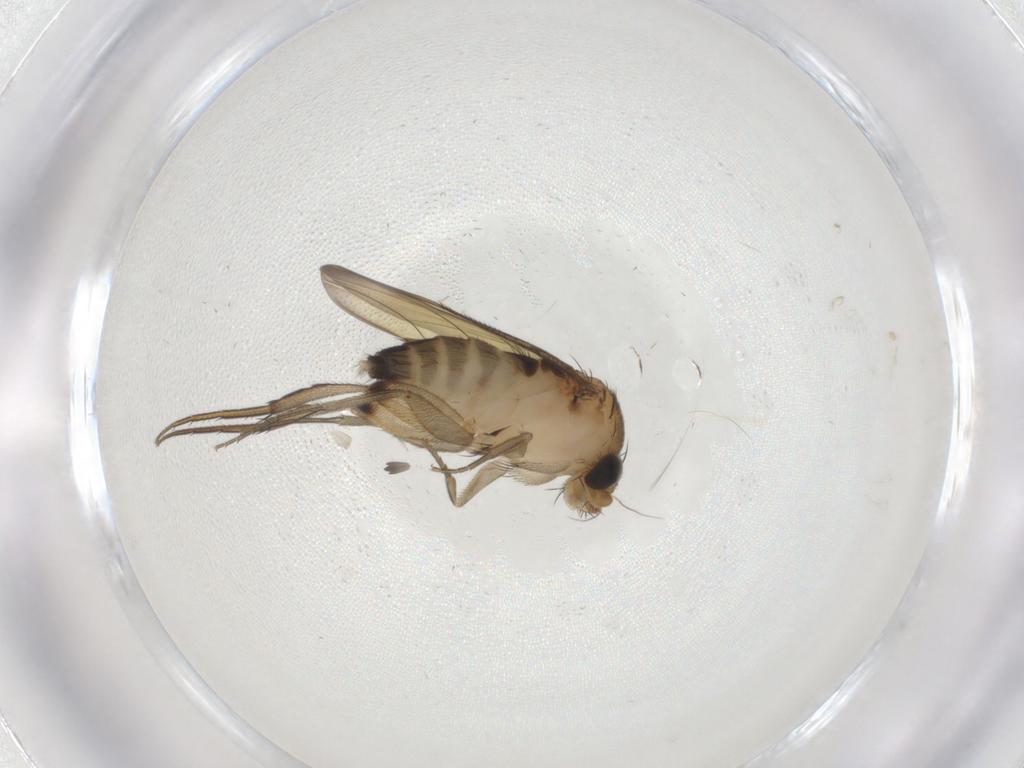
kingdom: Animalia
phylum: Arthropoda
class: Insecta
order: Diptera
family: Phoridae
